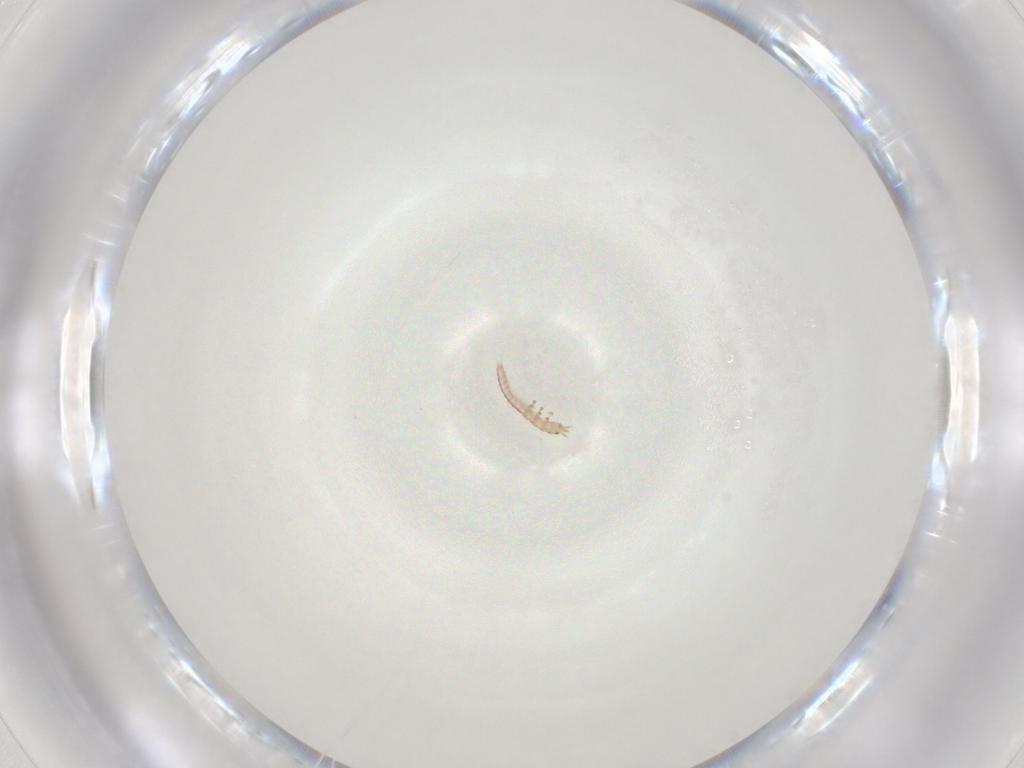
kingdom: Animalia
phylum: Arthropoda
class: Insecta
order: Neuroptera
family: Mantispidae
